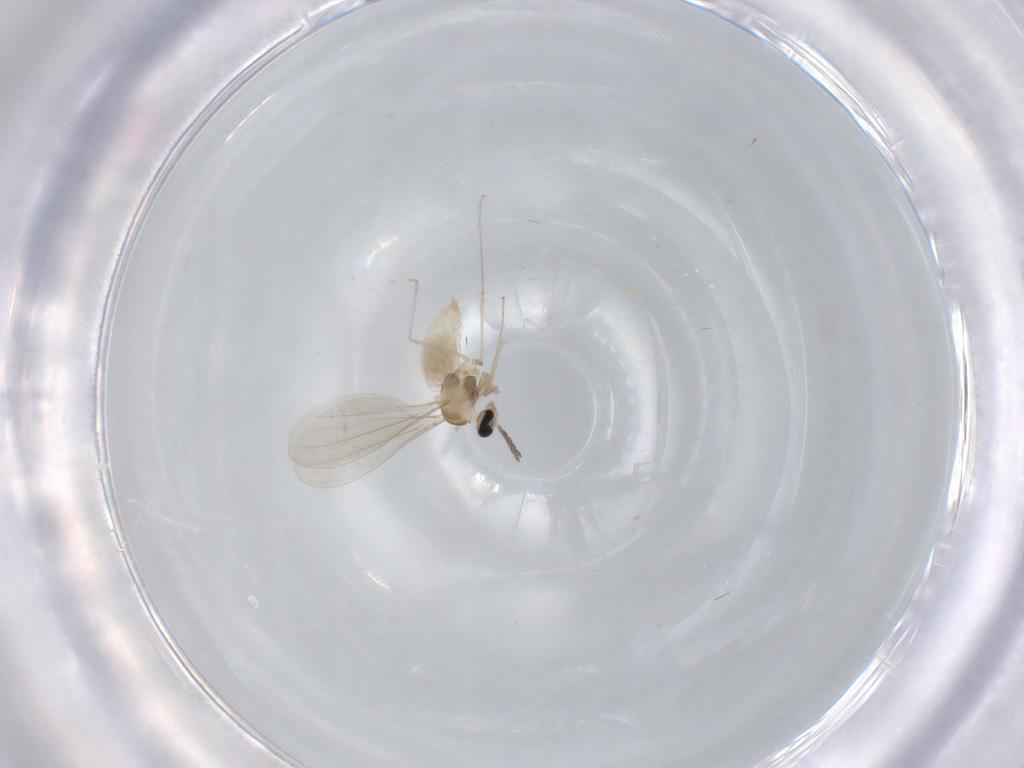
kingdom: Animalia
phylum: Arthropoda
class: Insecta
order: Diptera
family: Cecidomyiidae
